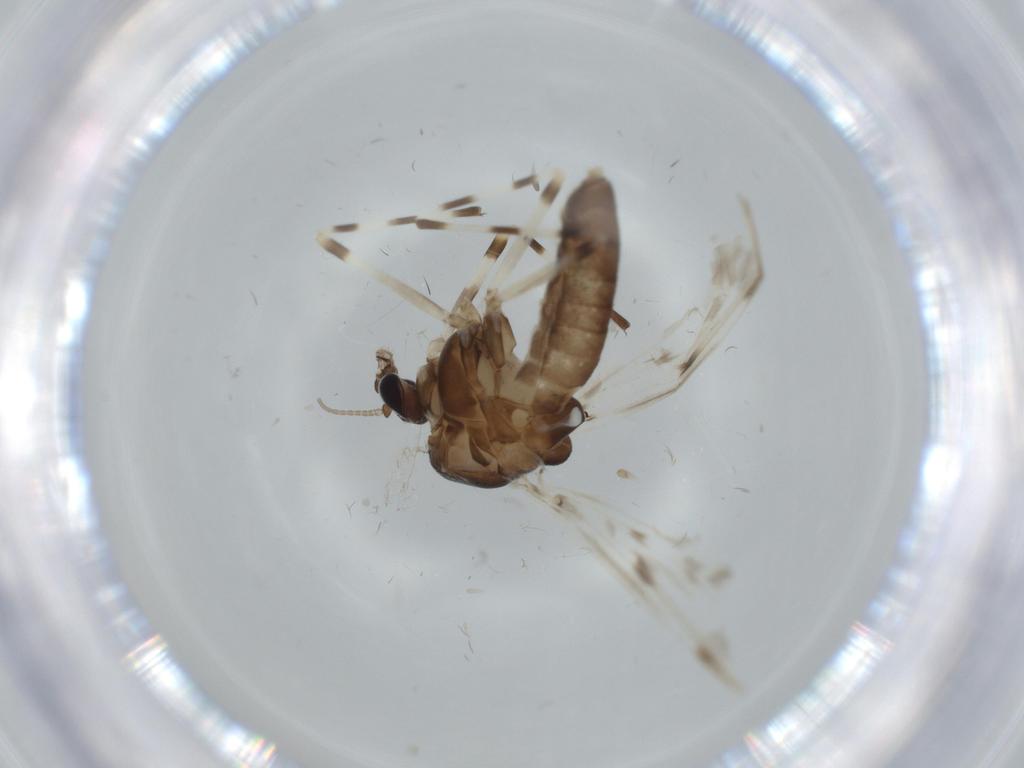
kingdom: Animalia
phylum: Arthropoda
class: Insecta
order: Diptera
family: Chironomidae
